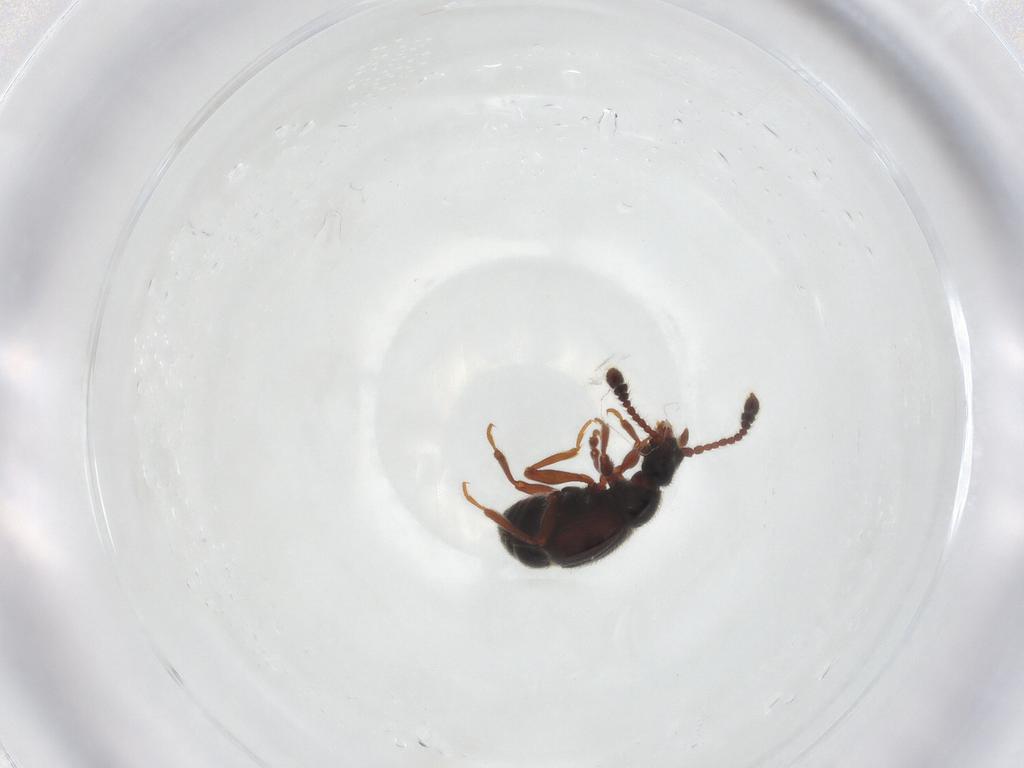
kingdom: Animalia
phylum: Arthropoda
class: Insecta
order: Coleoptera
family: Staphylinidae
